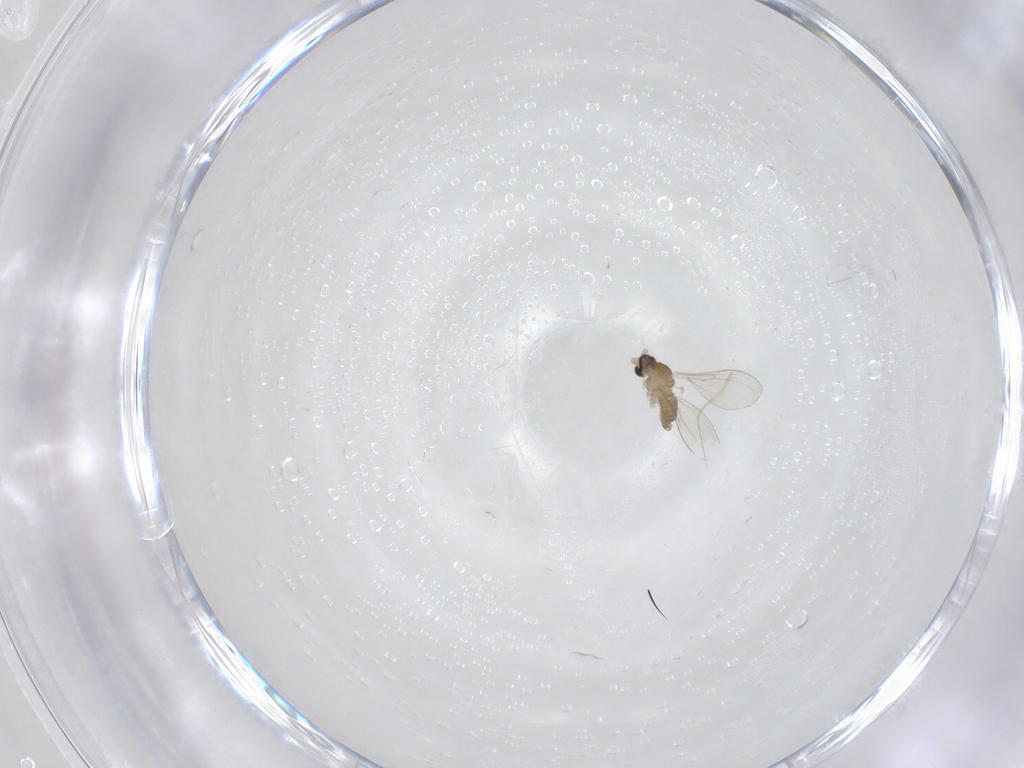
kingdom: Animalia
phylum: Arthropoda
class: Insecta
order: Diptera
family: Cecidomyiidae
